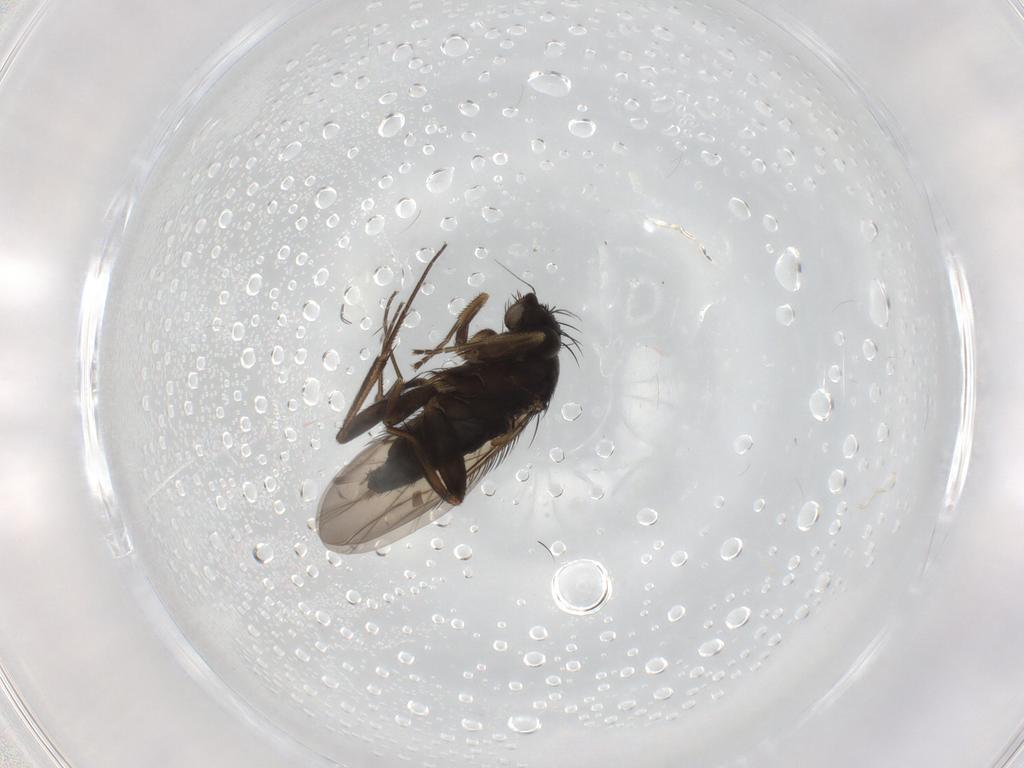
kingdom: Animalia
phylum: Arthropoda
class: Insecta
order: Diptera
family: Phoridae
